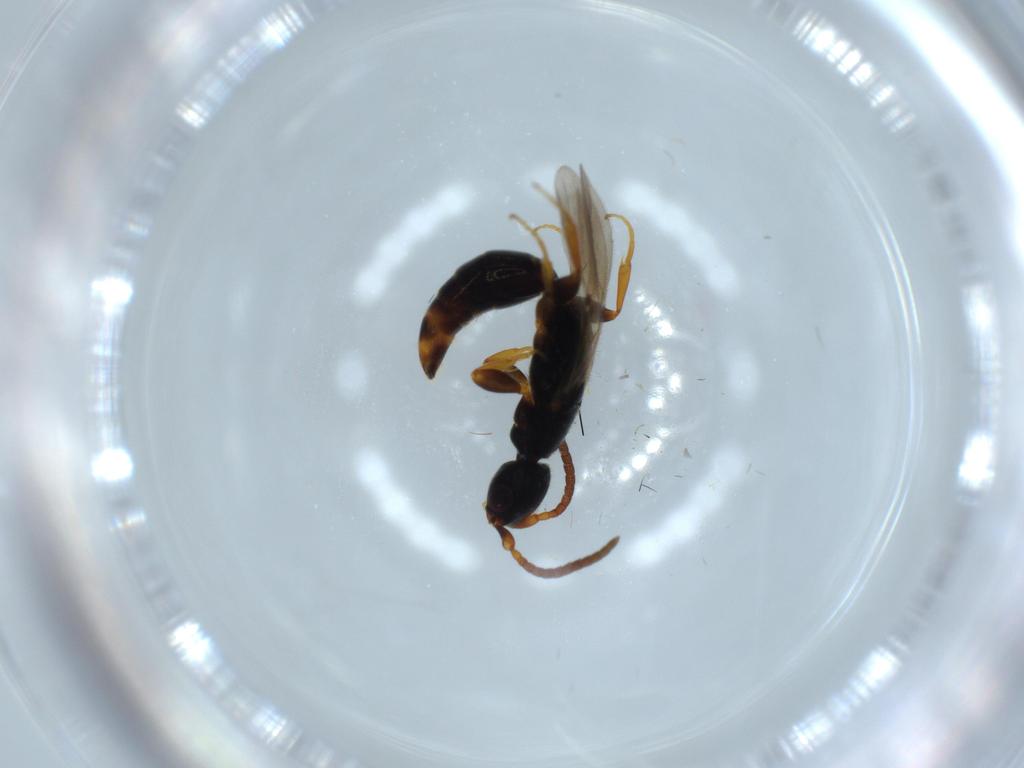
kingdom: Animalia
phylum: Arthropoda
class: Insecta
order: Hymenoptera
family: Bethylidae
